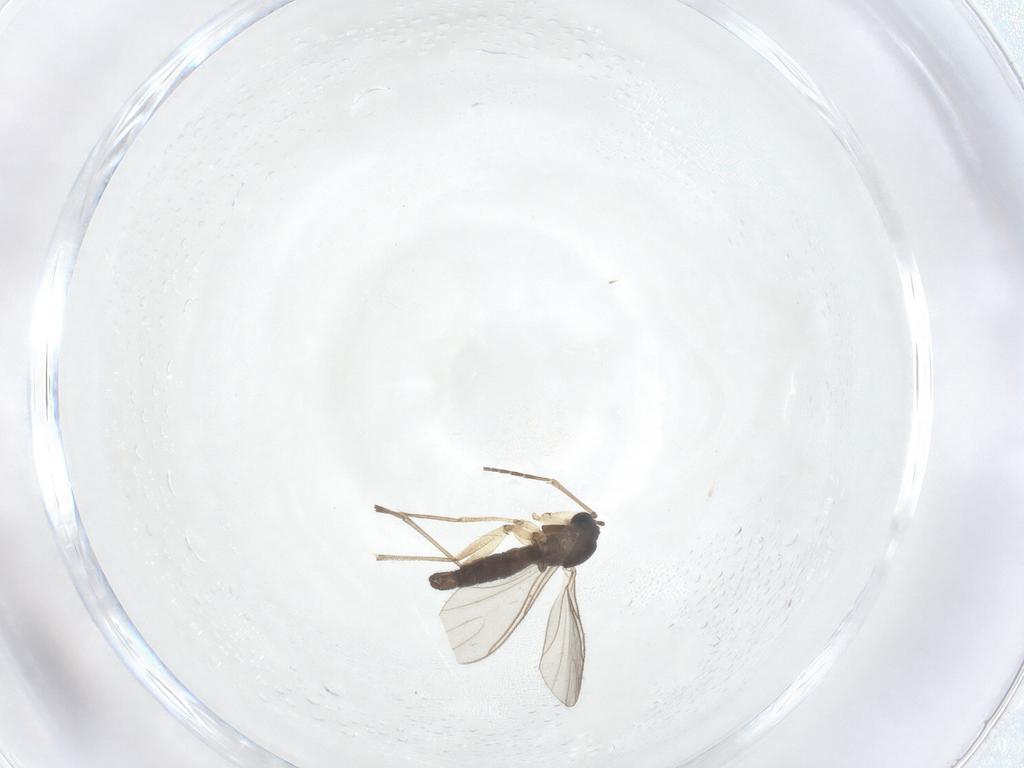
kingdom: Animalia
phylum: Arthropoda
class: Insecta
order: Diptera
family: Sciaridae
